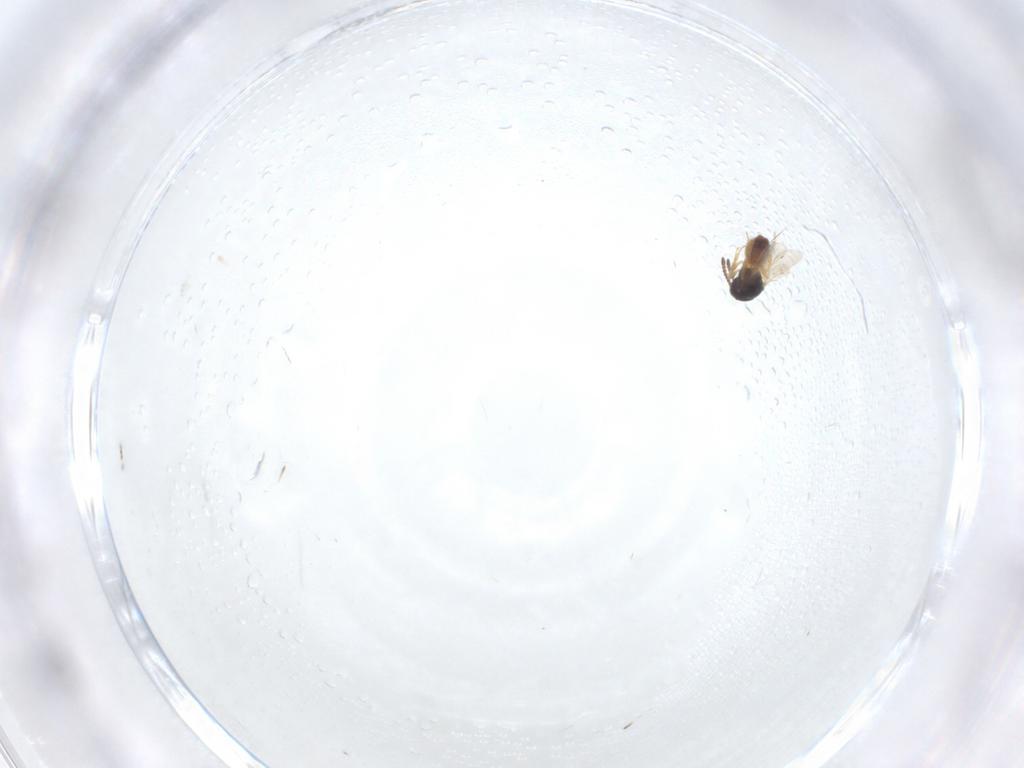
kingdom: Animalia
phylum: Arthropoda
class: Insecta
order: Hymenoptera
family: Scelionidae
